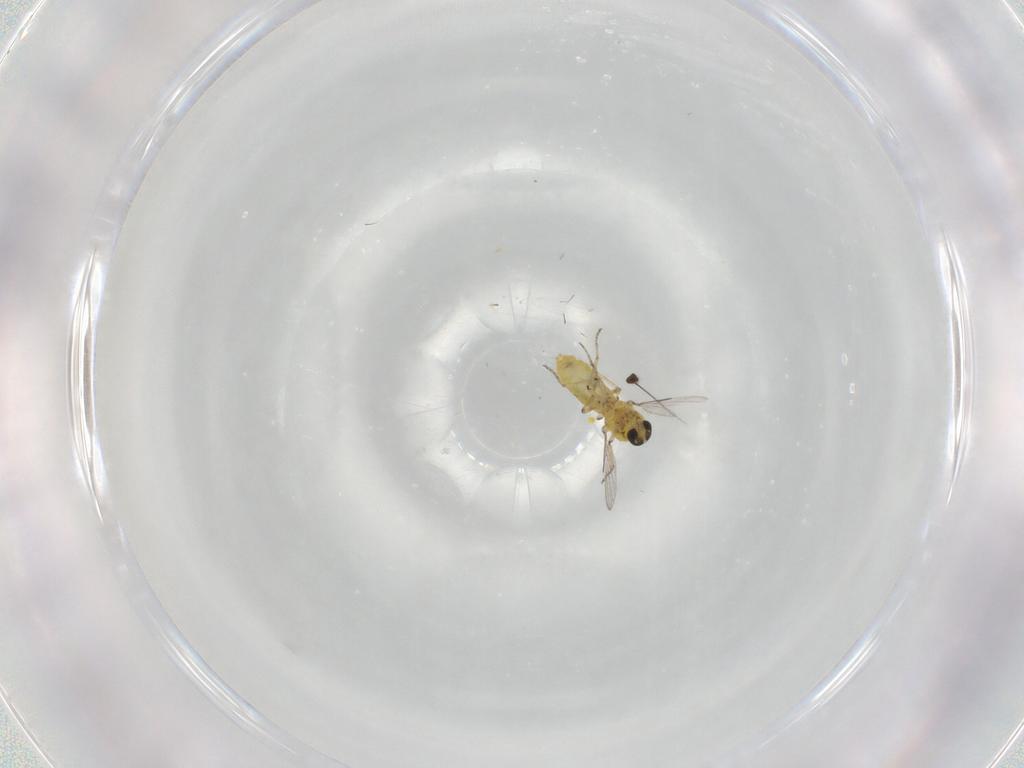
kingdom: Animalia
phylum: Arthropoda
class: Insecta
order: Diptera
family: Ceratopogonidae
